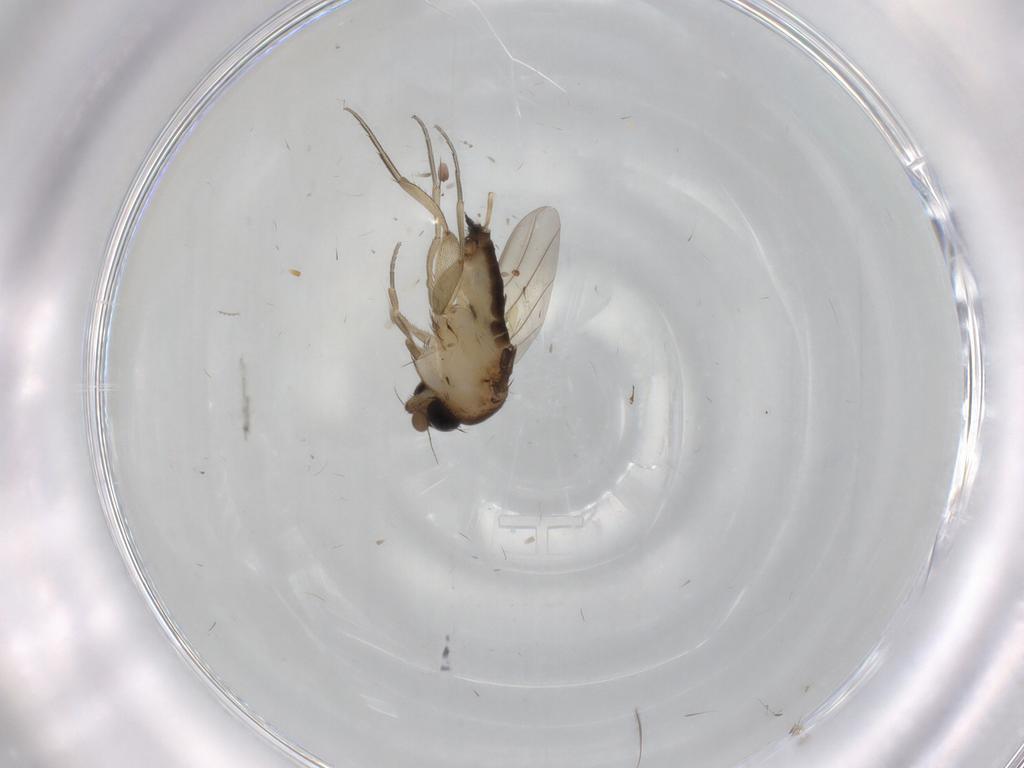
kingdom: Animalia
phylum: Arthropoda
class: Insecta
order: Diptera
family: Phoridae
